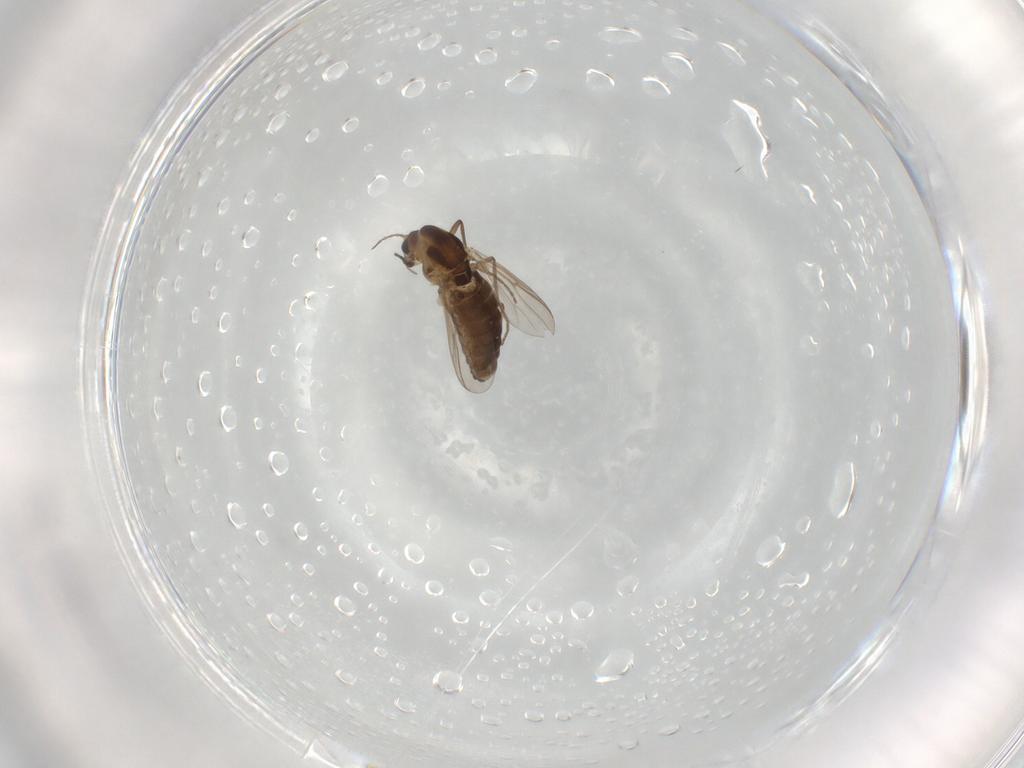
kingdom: Animalia
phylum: Arthropoda
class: Insecta
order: Diptera
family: Chironomidae
